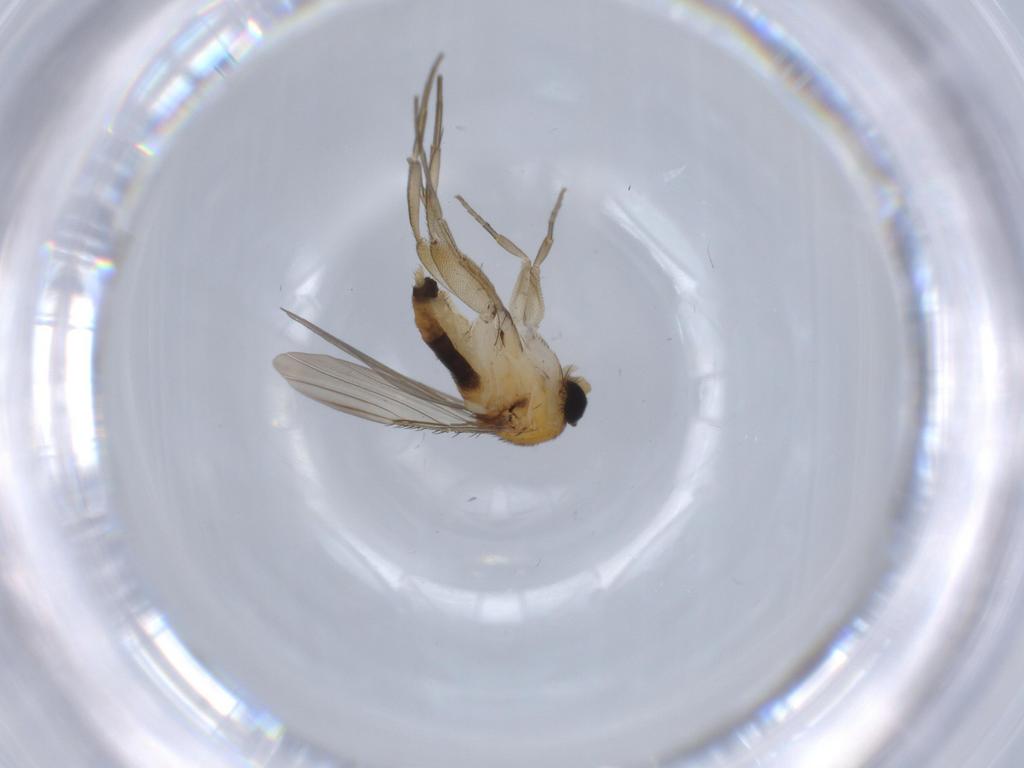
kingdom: Animalia
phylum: Arthropoda
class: Insecta
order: Diptera
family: Phoridae
